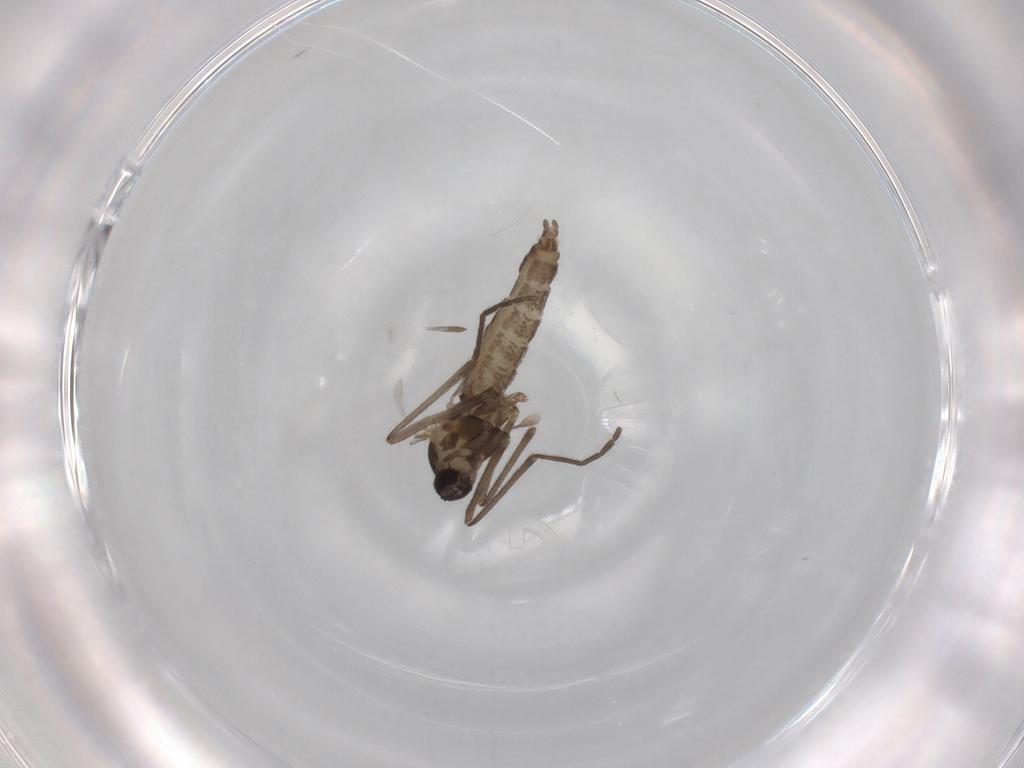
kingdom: Animalia
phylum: Arthropoda
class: Insecta
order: Diptera
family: Cecidomyiidae
